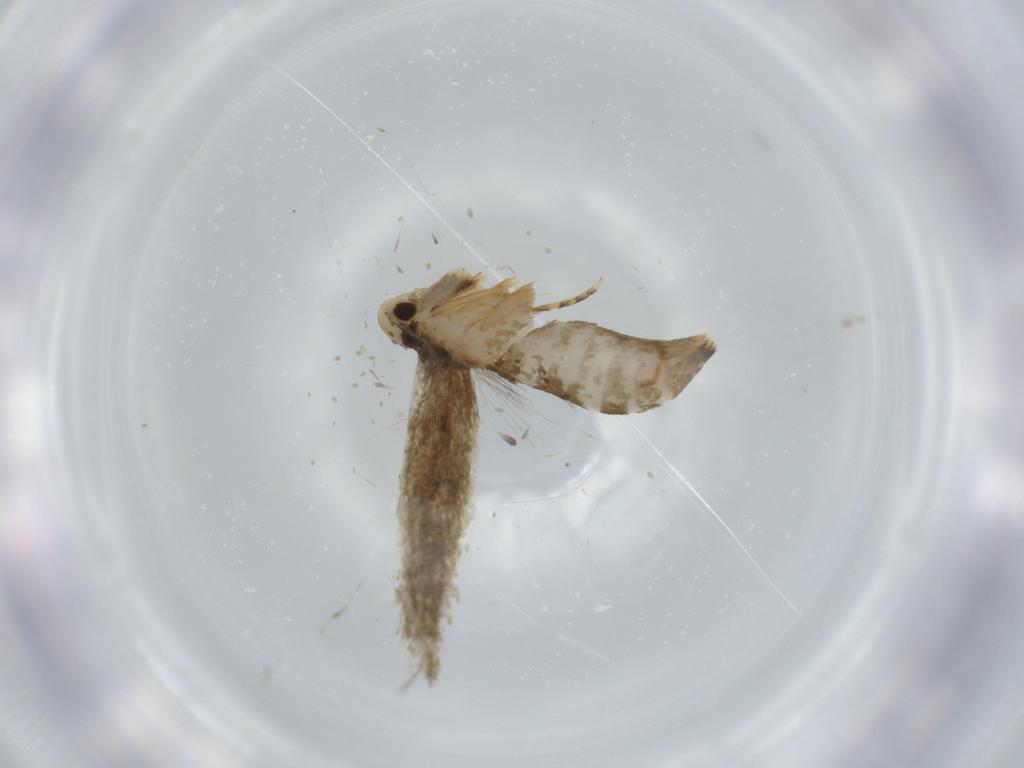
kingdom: Animalia
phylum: Arthropoda
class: Insecta
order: Lepidoptera
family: Tineidae
